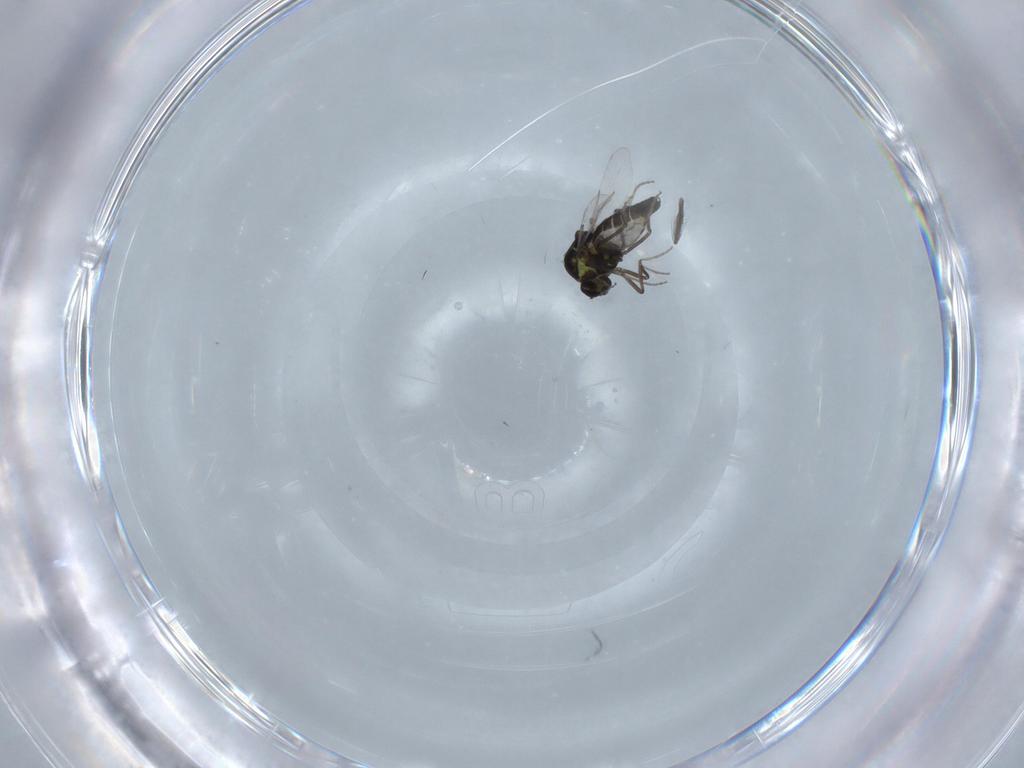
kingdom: Animalia
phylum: Arthropoda
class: Insecta
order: Diptera
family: Ceratopogonidae
